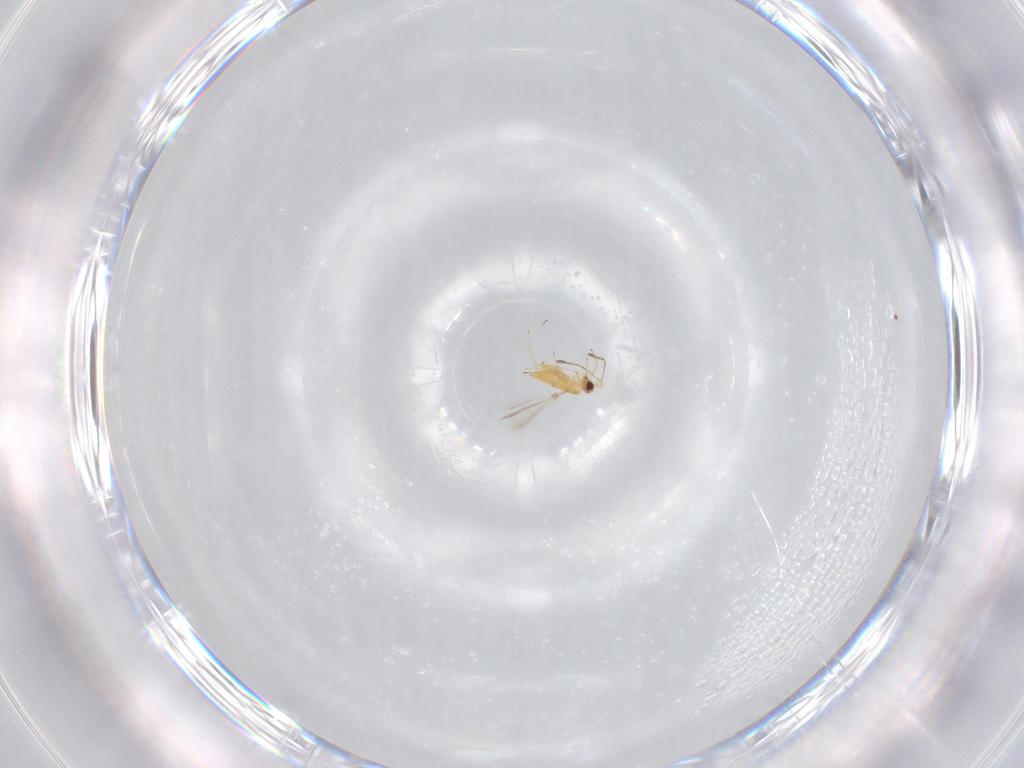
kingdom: Animalia
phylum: Arthropoda
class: Insecta
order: Hymenoptera
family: Mymaridae
